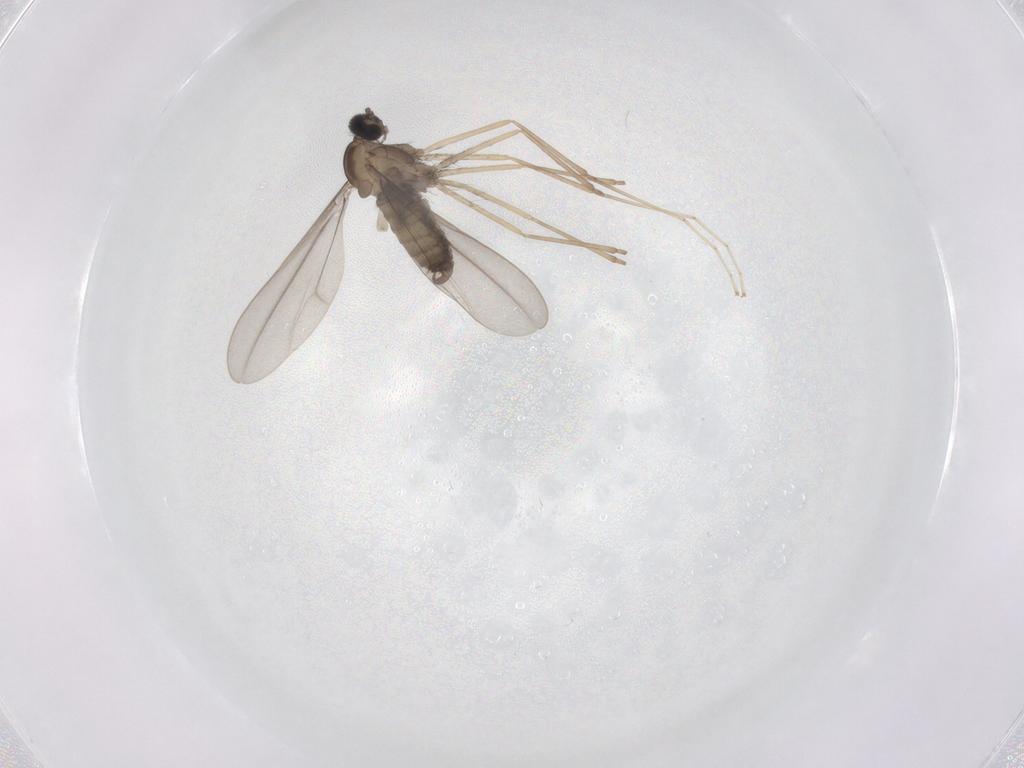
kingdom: Animalia
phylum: Arthropoda
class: Insecta
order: Diptera
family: Cecidomyiidae
